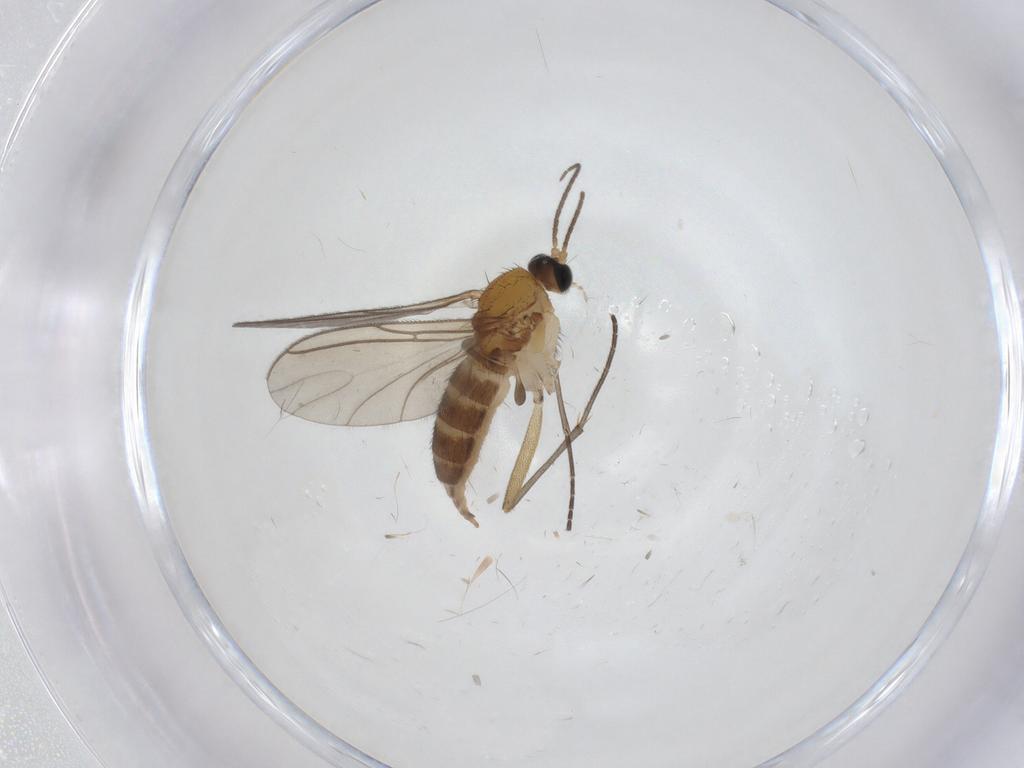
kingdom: Animalia
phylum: Arthropoda
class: Insecta
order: Diptera
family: Sciaridae
